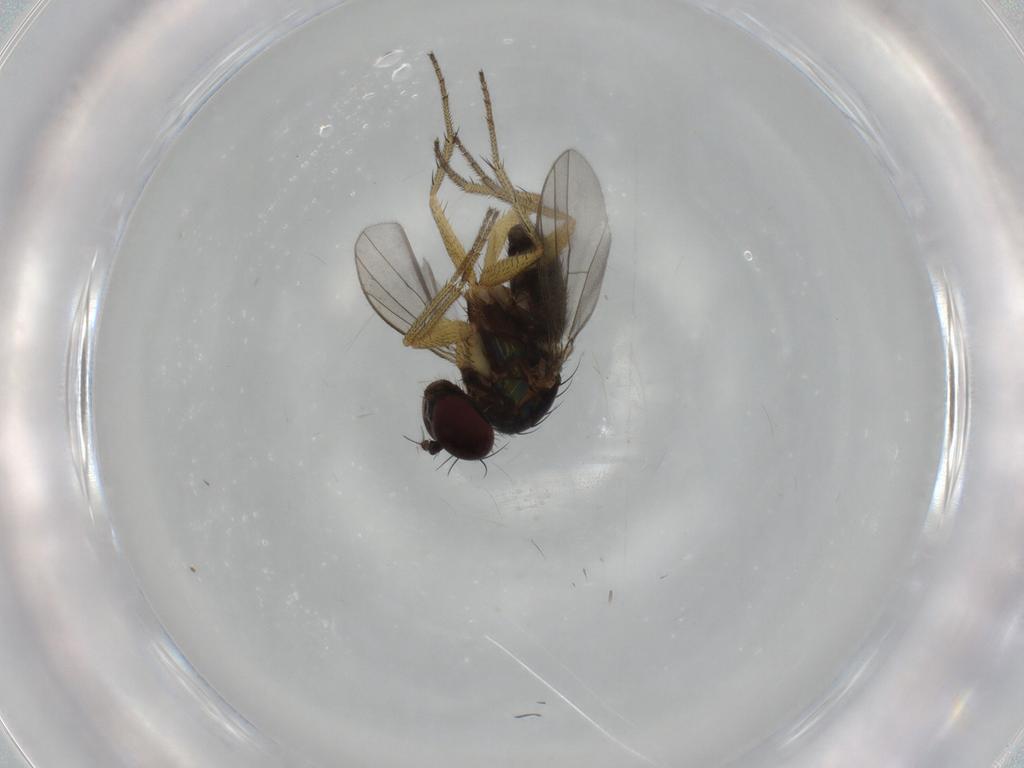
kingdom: Animalia
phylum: Arthropoda
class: Insecta
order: Diptera
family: Dolichopodidae
